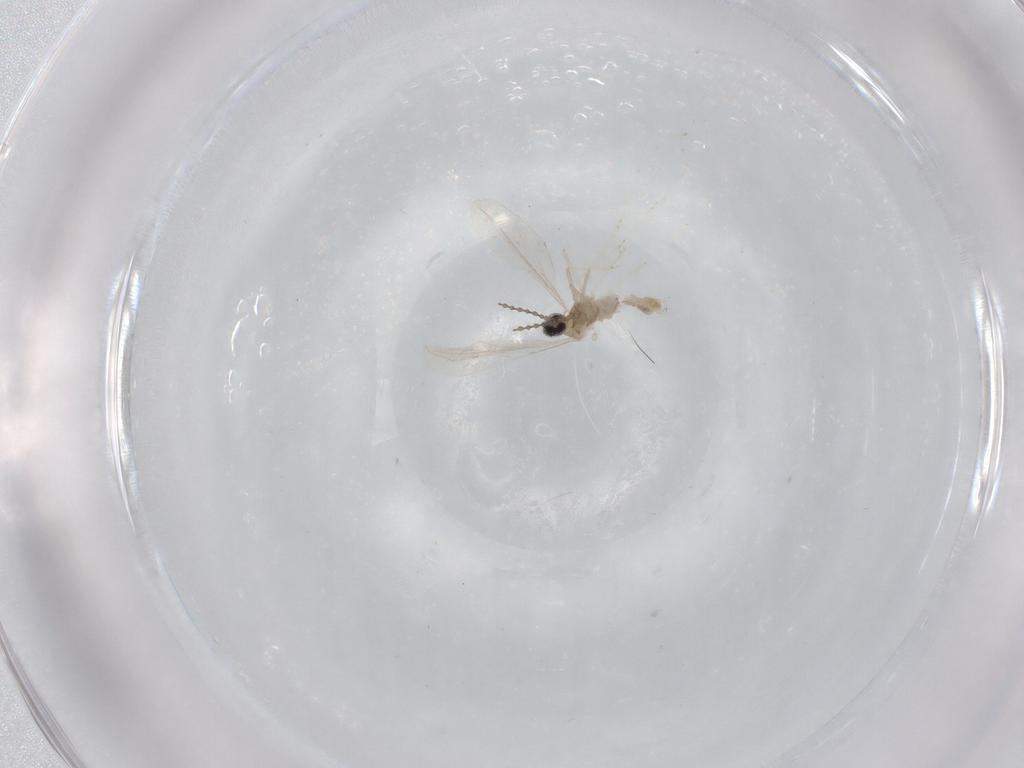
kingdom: Animalia
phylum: Arthropoda
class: Insecta
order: Diptera
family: Cecidomyiidae
